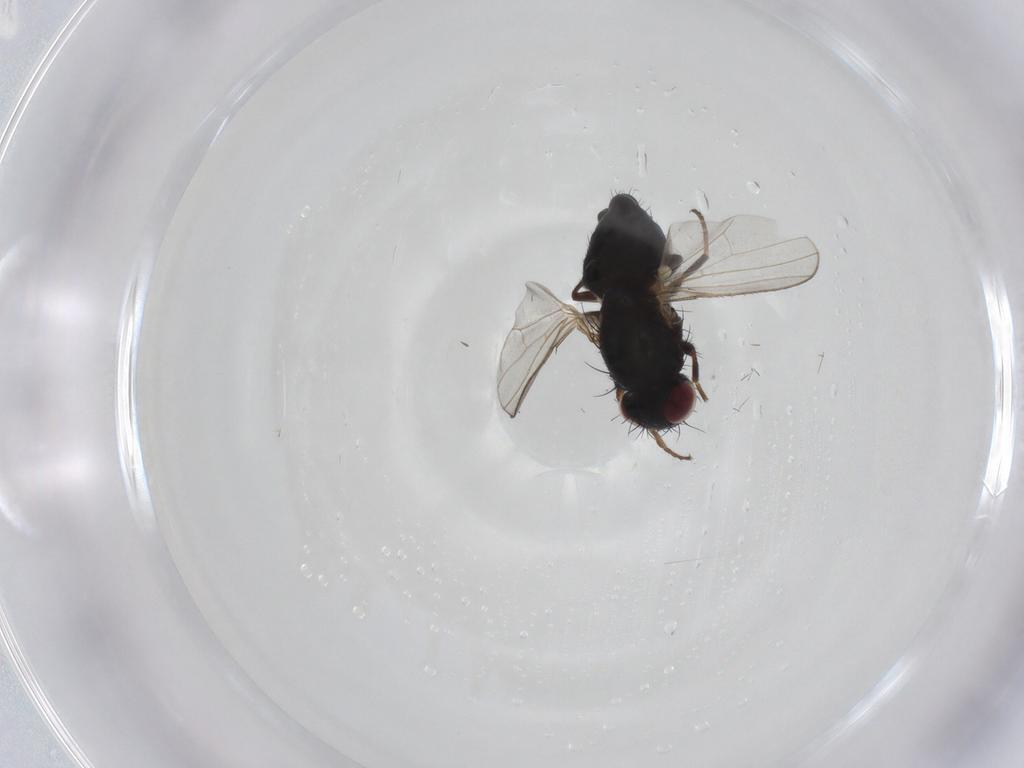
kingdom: Animalia
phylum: Arthropoda
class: Insecta
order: Diptera
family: Carnidae
